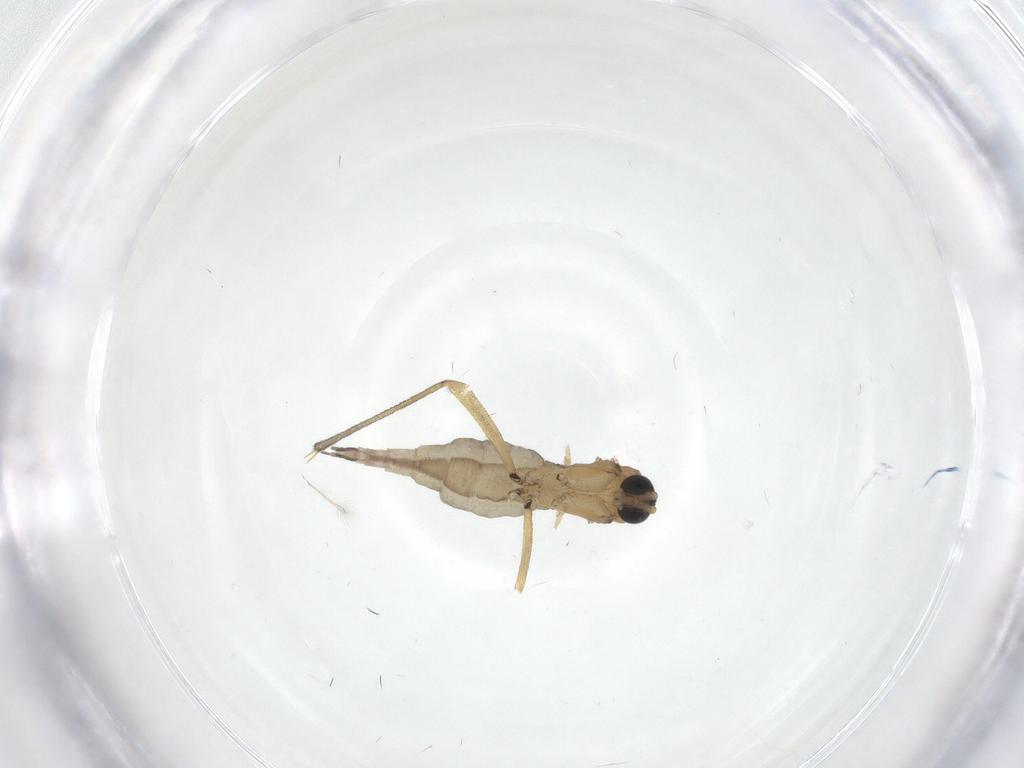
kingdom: Animalia
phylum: Arthropoda
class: Insecta
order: Diptera
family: Sciaridae
